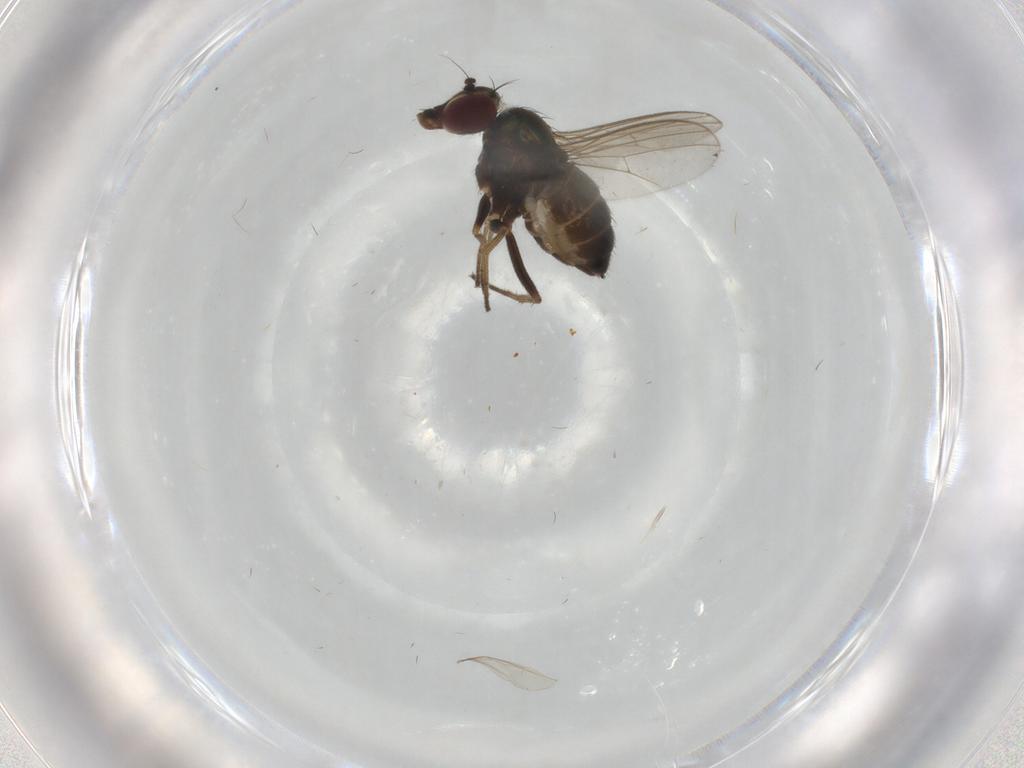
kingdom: Animalia
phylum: Arthropoda
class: Insecta
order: Diptera
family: Dolichopodidae
